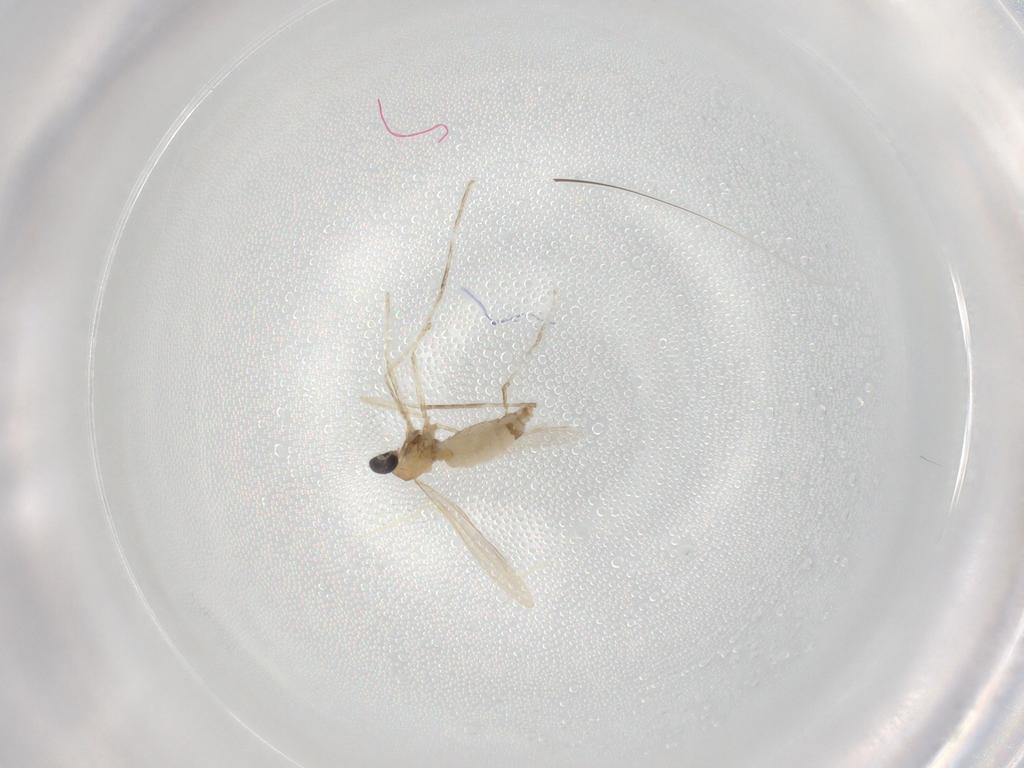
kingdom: Animalia
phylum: Arthropoda
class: Insecta
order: Diptera
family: Cecidomyiidae
